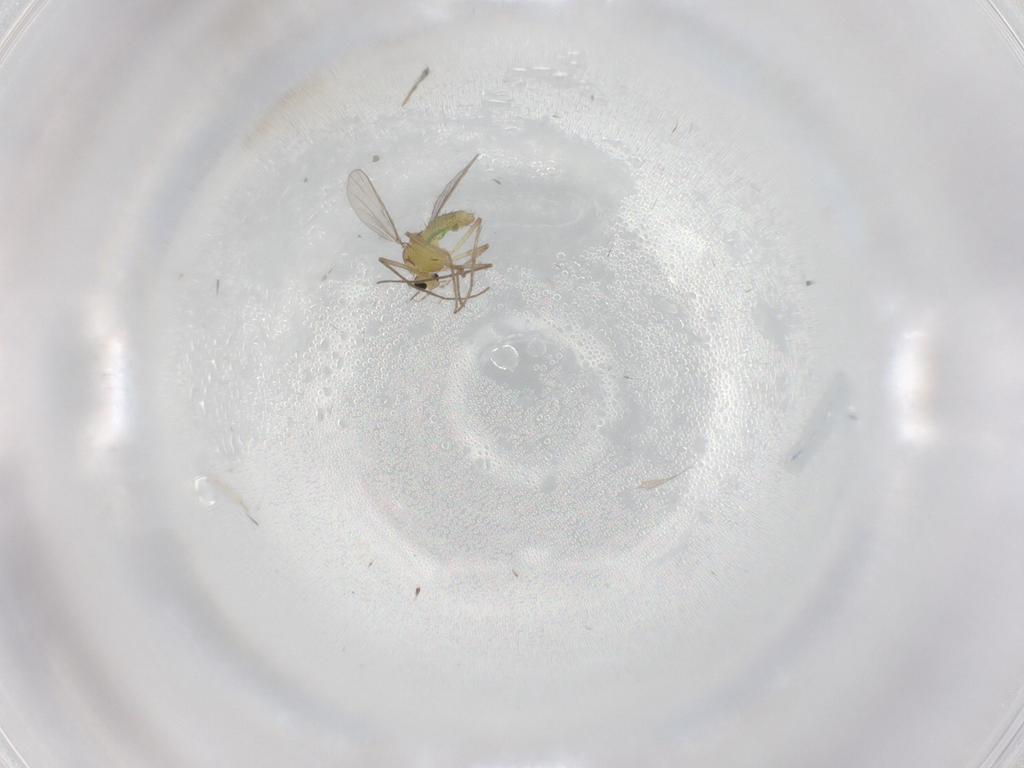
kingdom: Animalia
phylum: Arthropoda
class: Insecta
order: Diptera
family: Chironomidae
